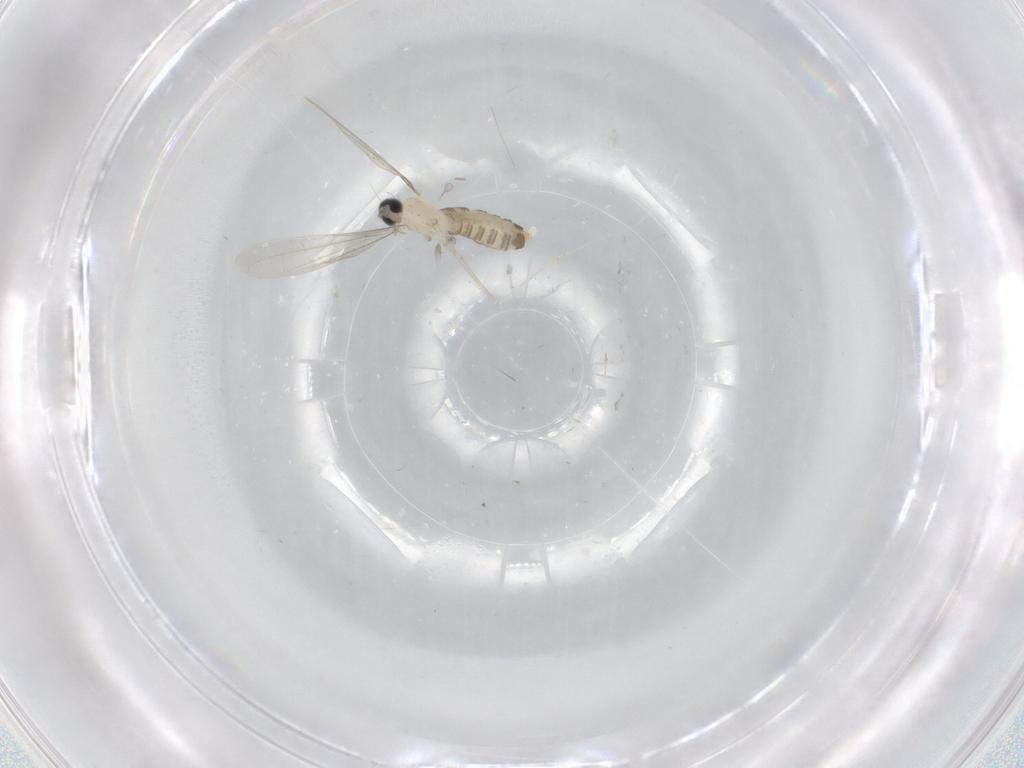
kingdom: Animalia
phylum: Arthropoda
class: Insecta
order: Diptera
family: Cecidomyiidae
